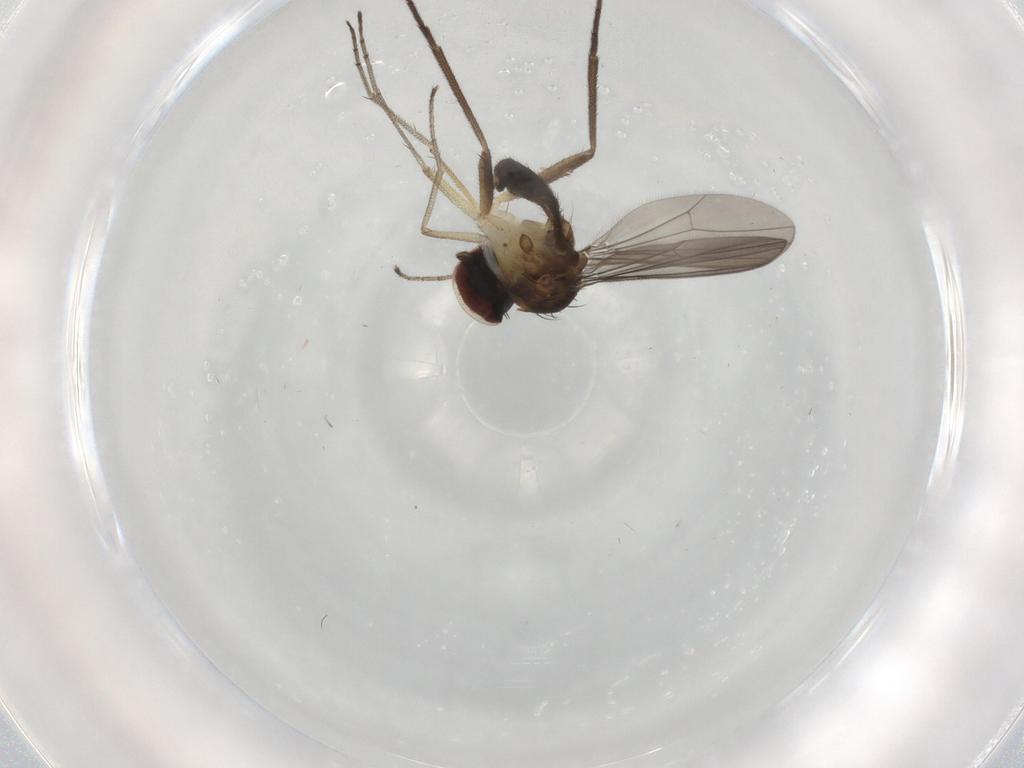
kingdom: Animalia
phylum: Arthropoda
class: Insecta
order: Diptera
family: Dolichopodidae
